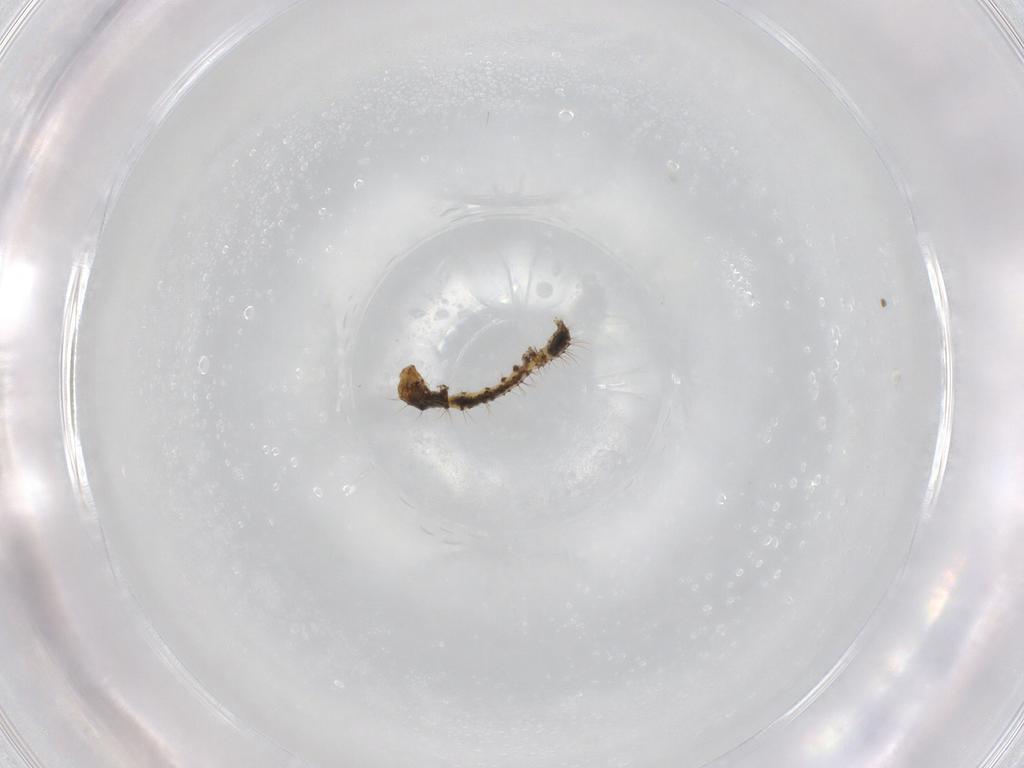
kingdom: Animalia
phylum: Arthropoda
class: Insecta
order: Lepidoptera
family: Erebidae
